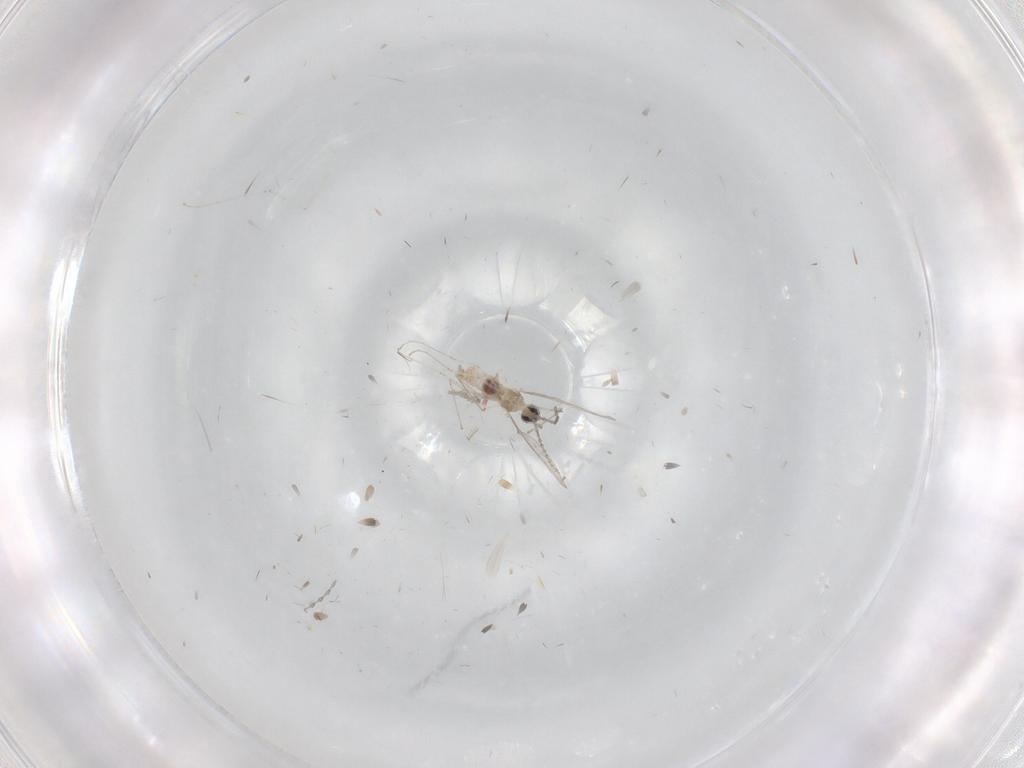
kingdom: Animalia
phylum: Arthropoda
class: Insecta
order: Diptera
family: Cecidomyiidae
